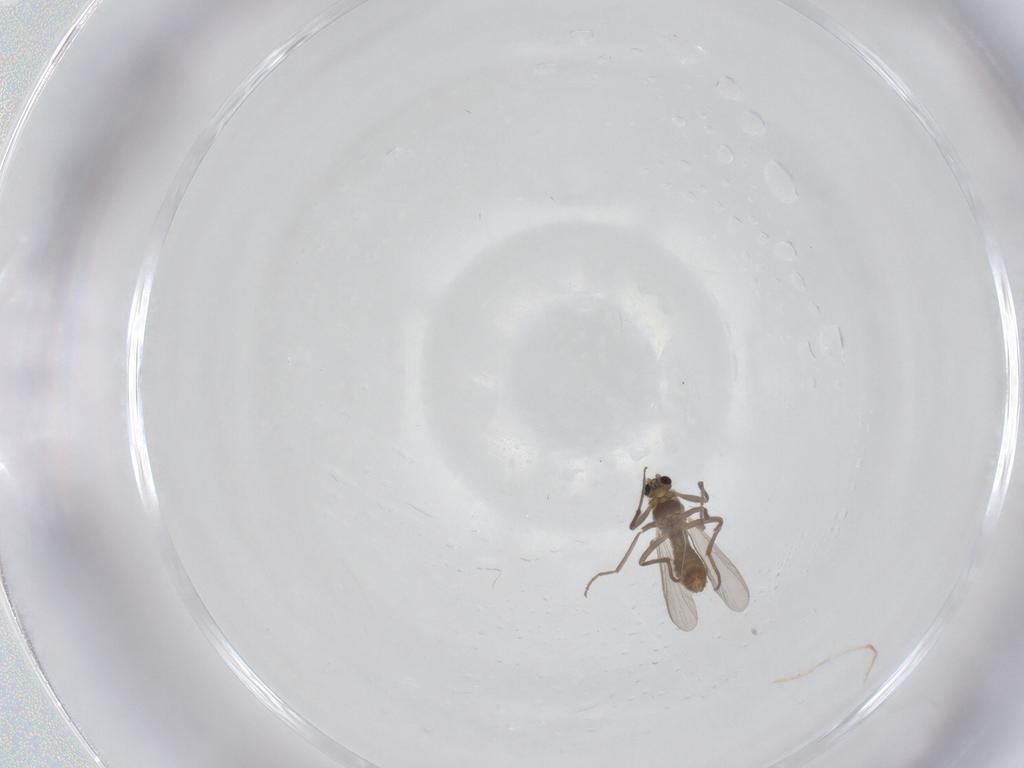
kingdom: Animalia
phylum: Arthropoda
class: Insecta
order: Diptera
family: Chironomidae
